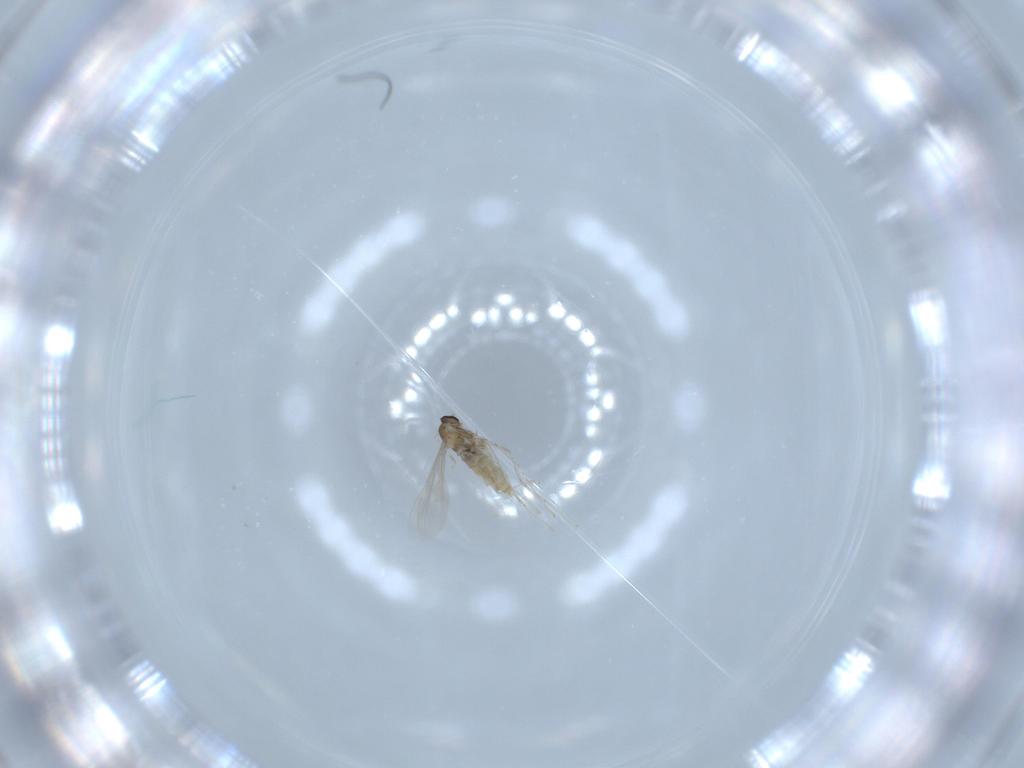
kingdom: Animalia
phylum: Arthropoda
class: Insecta
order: Diptera
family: Cecidomyiidae
